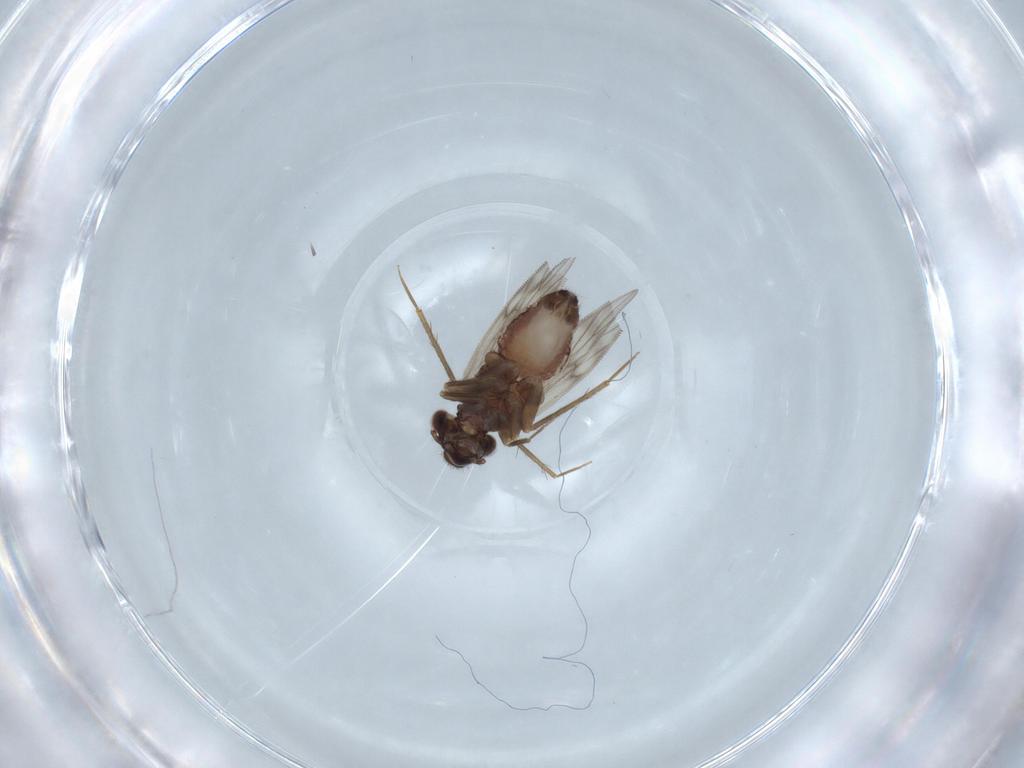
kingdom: Animalia
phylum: Arthropoda
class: Insecta
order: Psocodea
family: Lepidopsocidae
